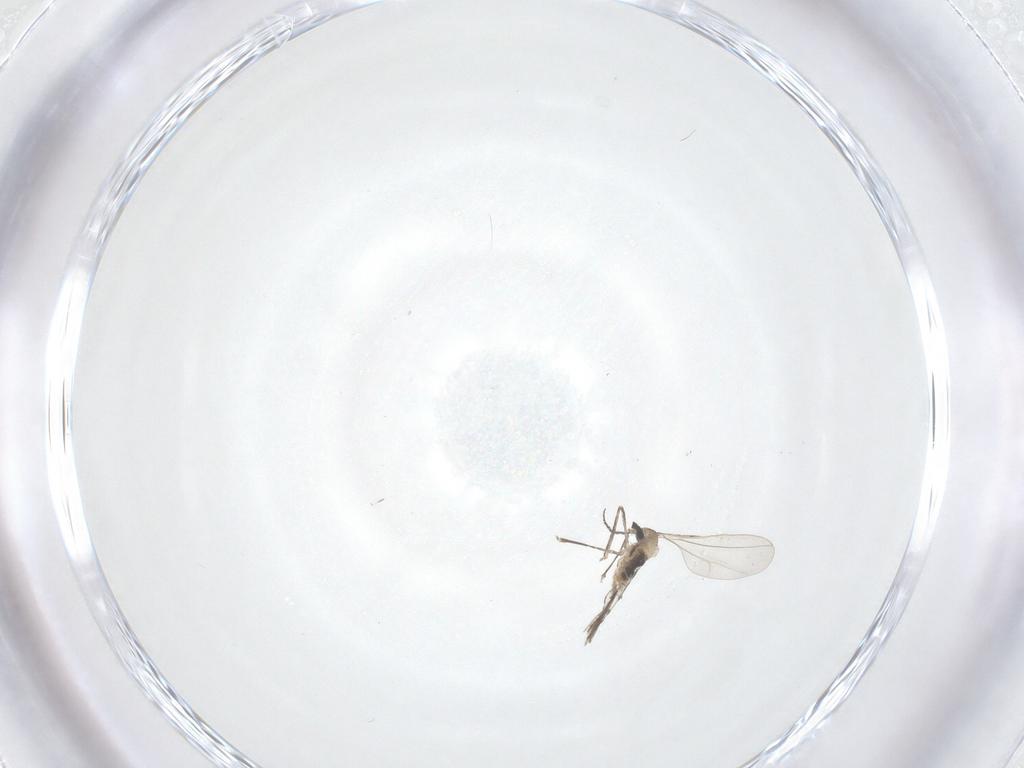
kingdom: Animalia
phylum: Arthropoda
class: Insecta
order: Diptera
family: Cecidomyiidae
